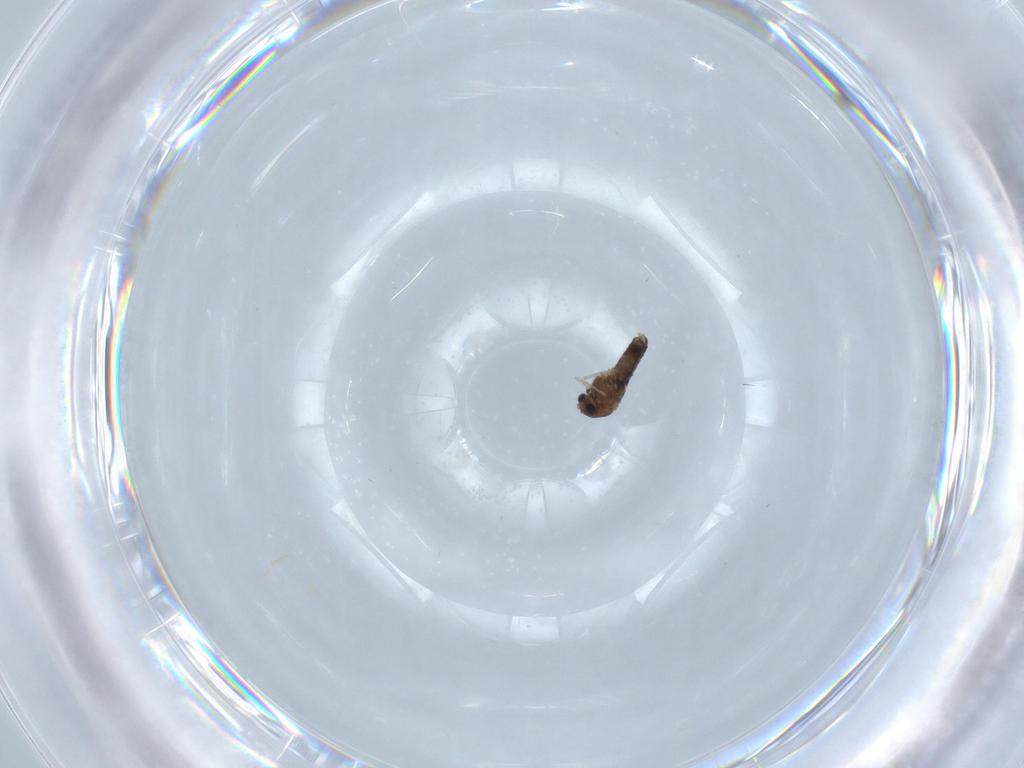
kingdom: Animalia
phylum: Arthropoda
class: Insecta
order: Diptera
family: Chironomidae
